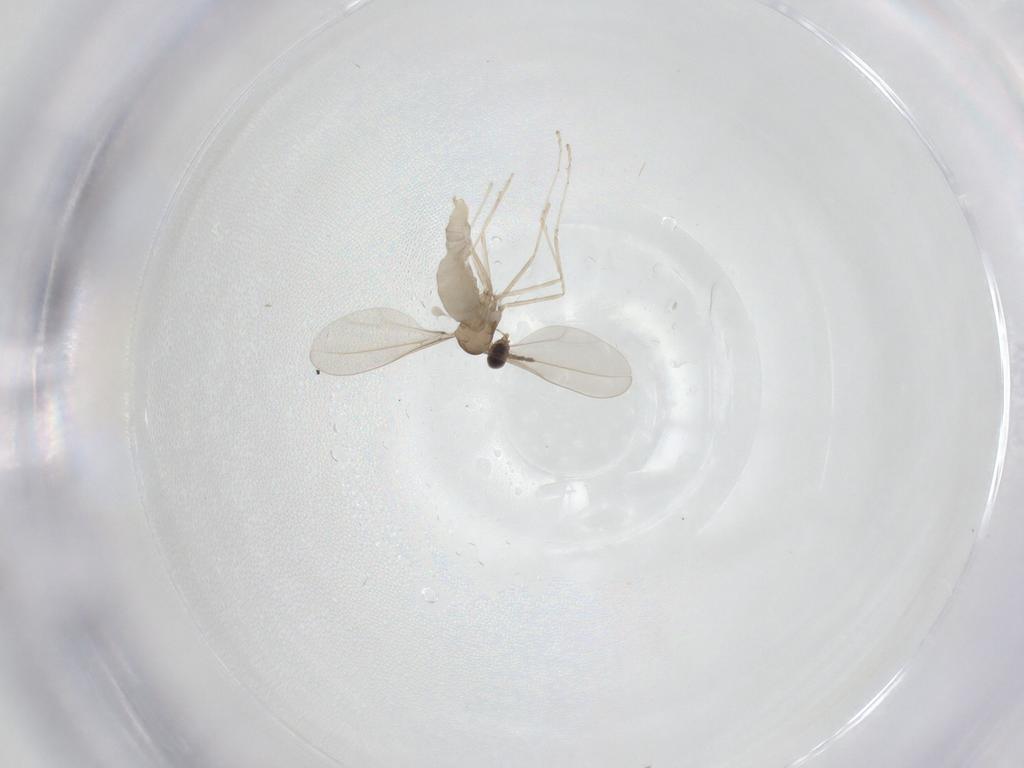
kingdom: Animalia
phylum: Arthropoda
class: Insecta
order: Diptera
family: Cecidomyiidae
